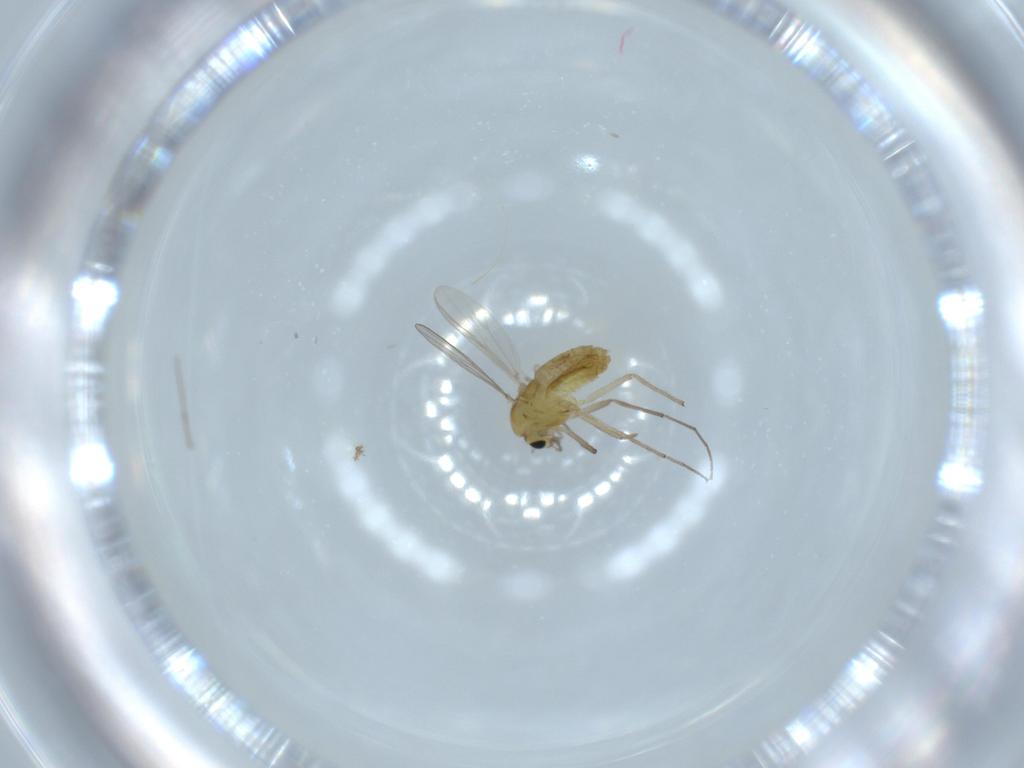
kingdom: Animalia
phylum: Arthropoda
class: Insecta
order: Diptera
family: Chironomidae
